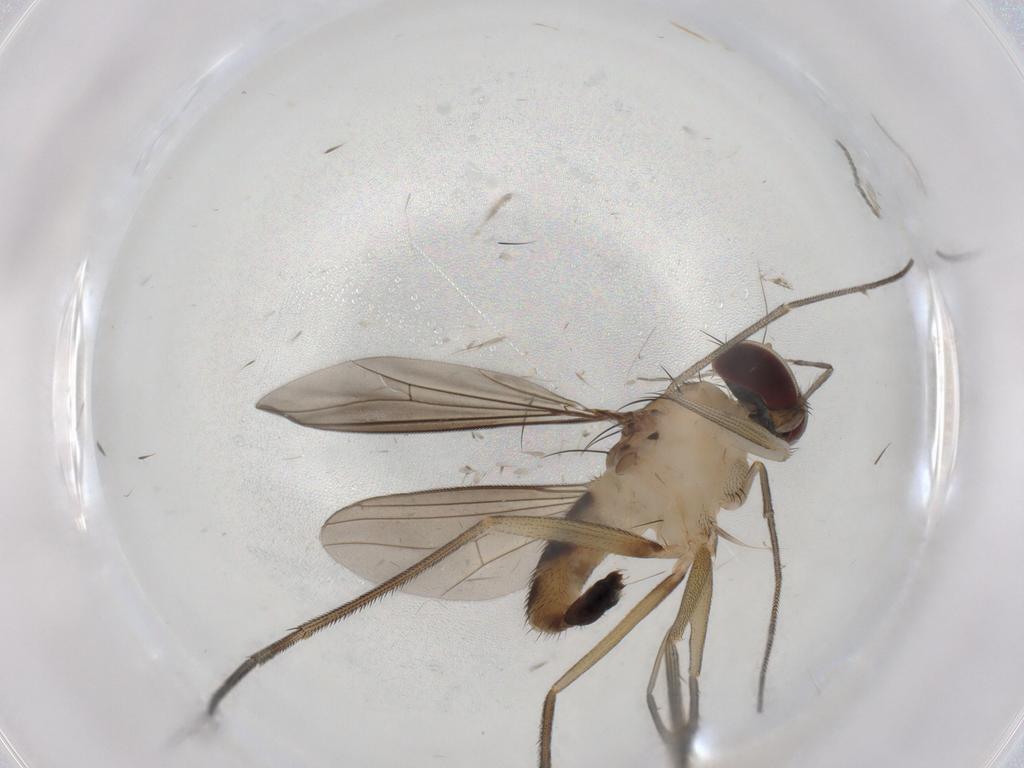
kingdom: Animalia
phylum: Arthropoda
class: Insecta
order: Diptera
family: Dolichopodidae
